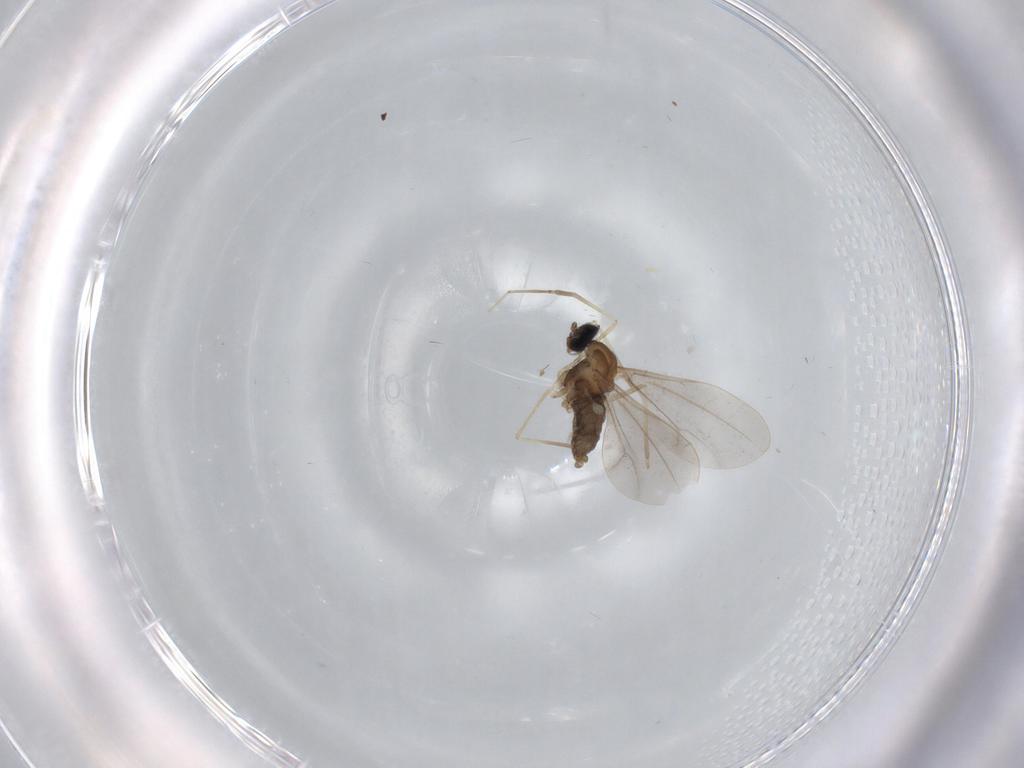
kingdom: Animalia
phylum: Arthropoda
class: Insecta
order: Diptera
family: Cecidomyiidae
